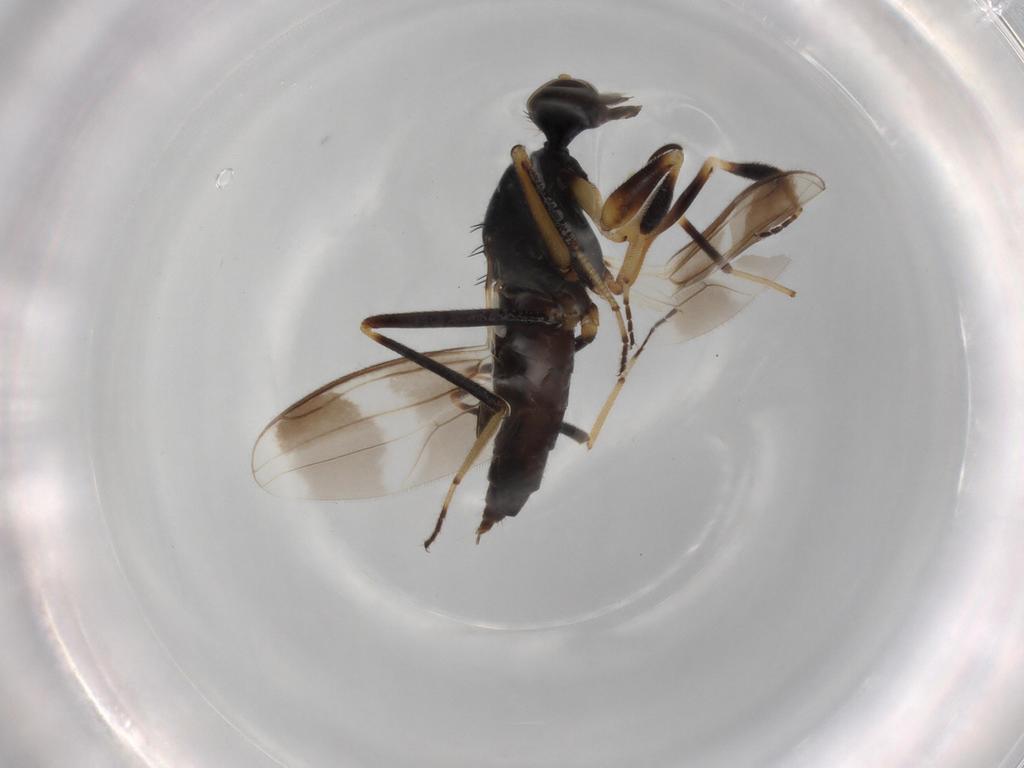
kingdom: Animalia
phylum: Arthropoda
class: Insecta
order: Diptera
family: Hybotidae
